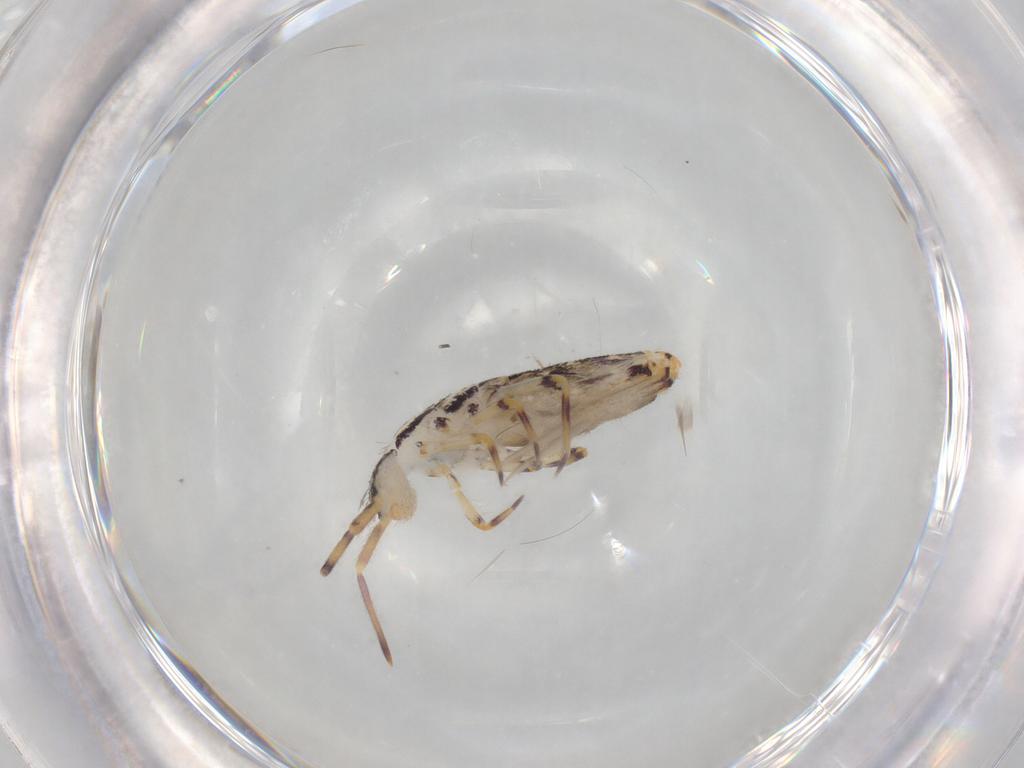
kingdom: Animalia
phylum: Arthropoda
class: Collembola
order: Entomobryomorpha
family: Entomobryidae
